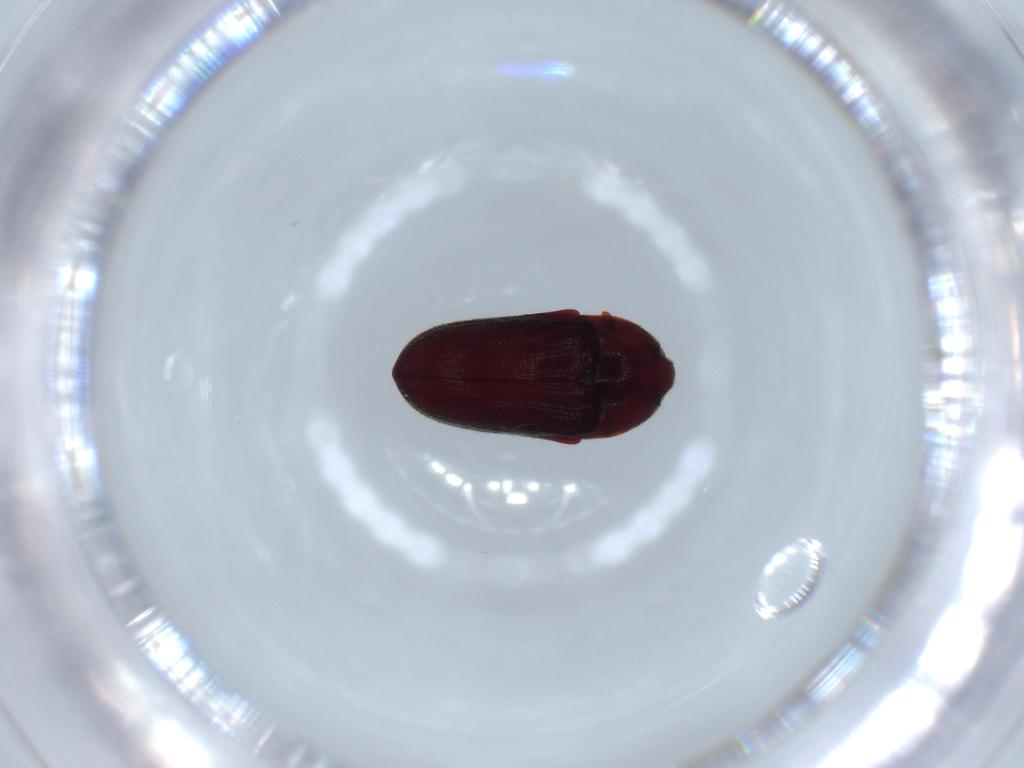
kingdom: Animalia
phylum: Arthropoda
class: Insecta
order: Coleoptera
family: Throscidae
